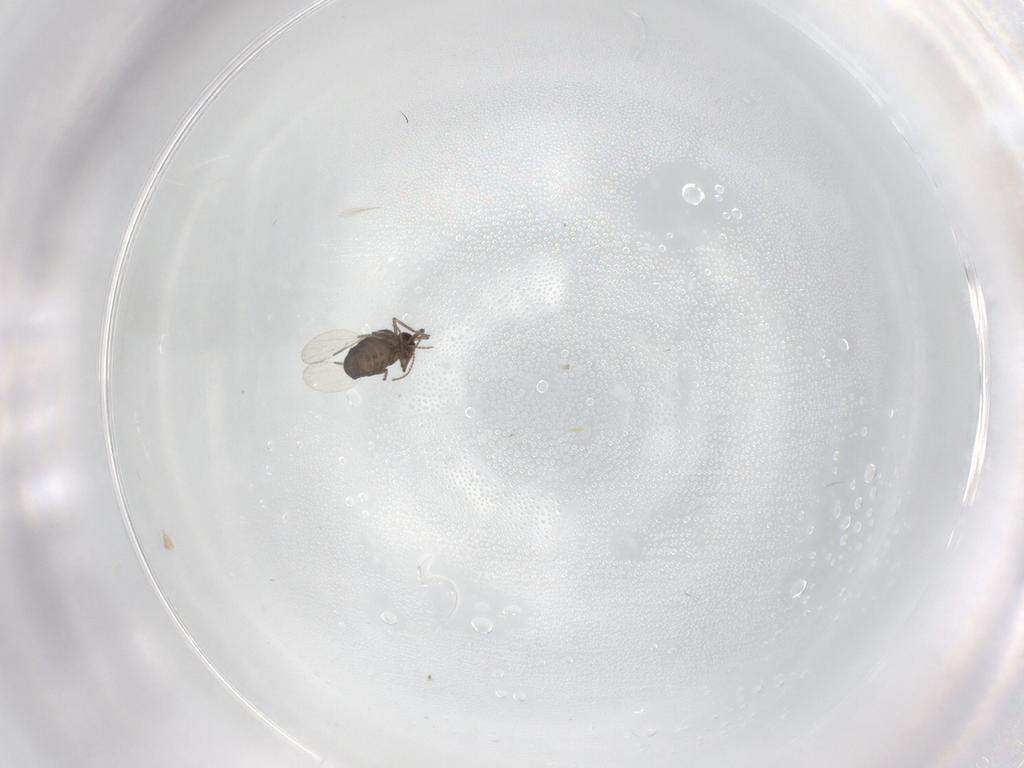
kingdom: Animalia
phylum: Arthropoda
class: Insecta
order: Diptera
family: Ceratopogonidae
